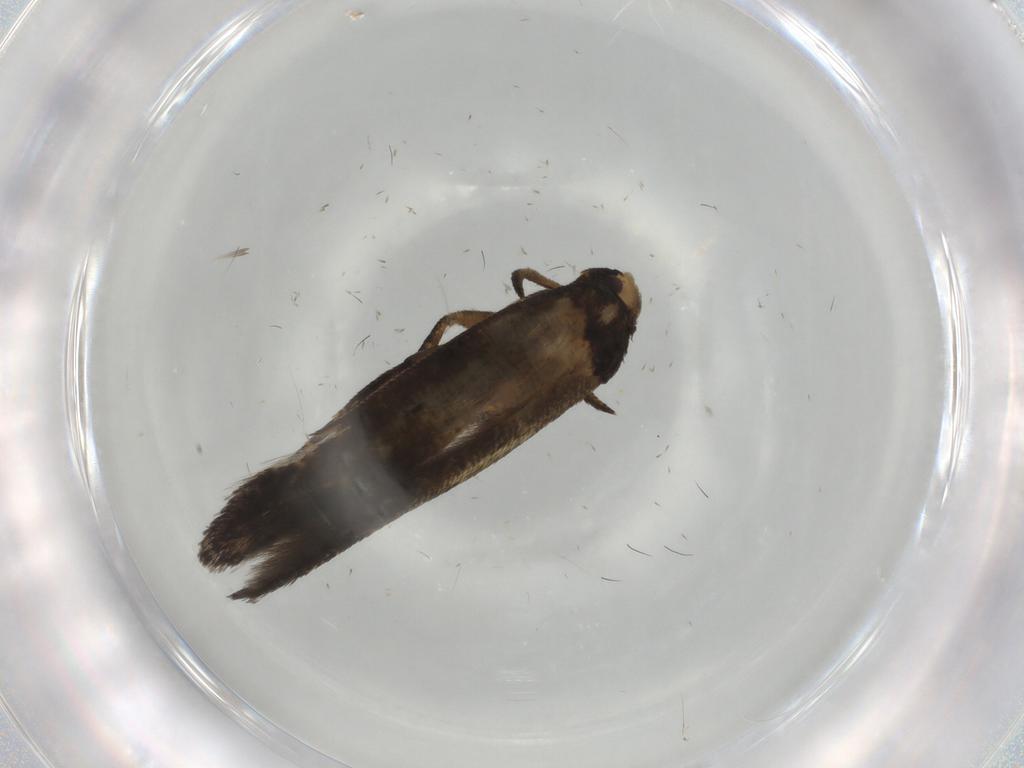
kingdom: Animalia
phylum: Arthropoda
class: Insecta
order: Lepidoptera
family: Cosmopterigidae
